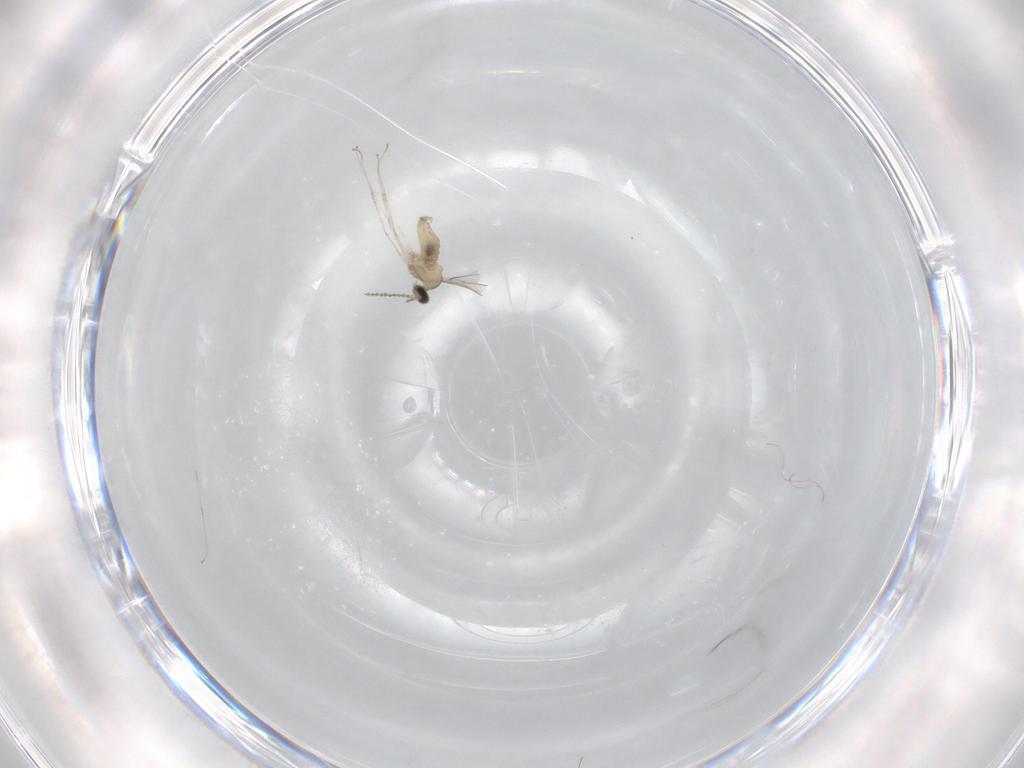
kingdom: Animalia
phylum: Arthropoda
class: Insecta
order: Diptera
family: Cecidomyiidae
